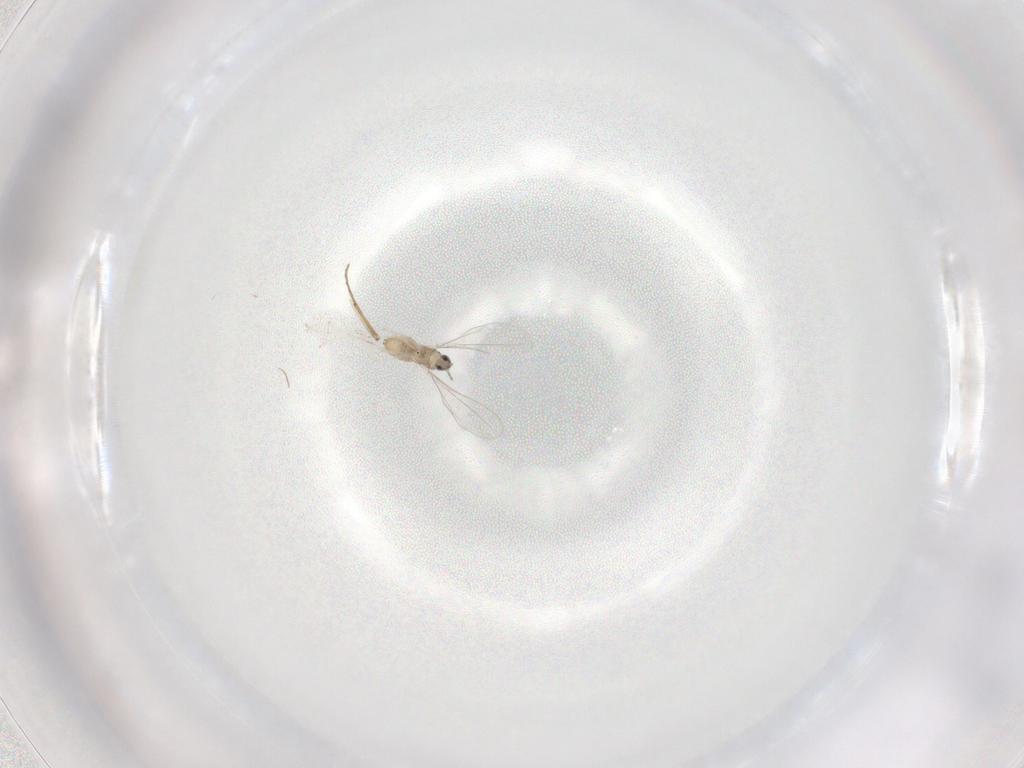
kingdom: Animalia
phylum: Arthropoda
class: Insecta
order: Diptera
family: Cecidomyiidae
